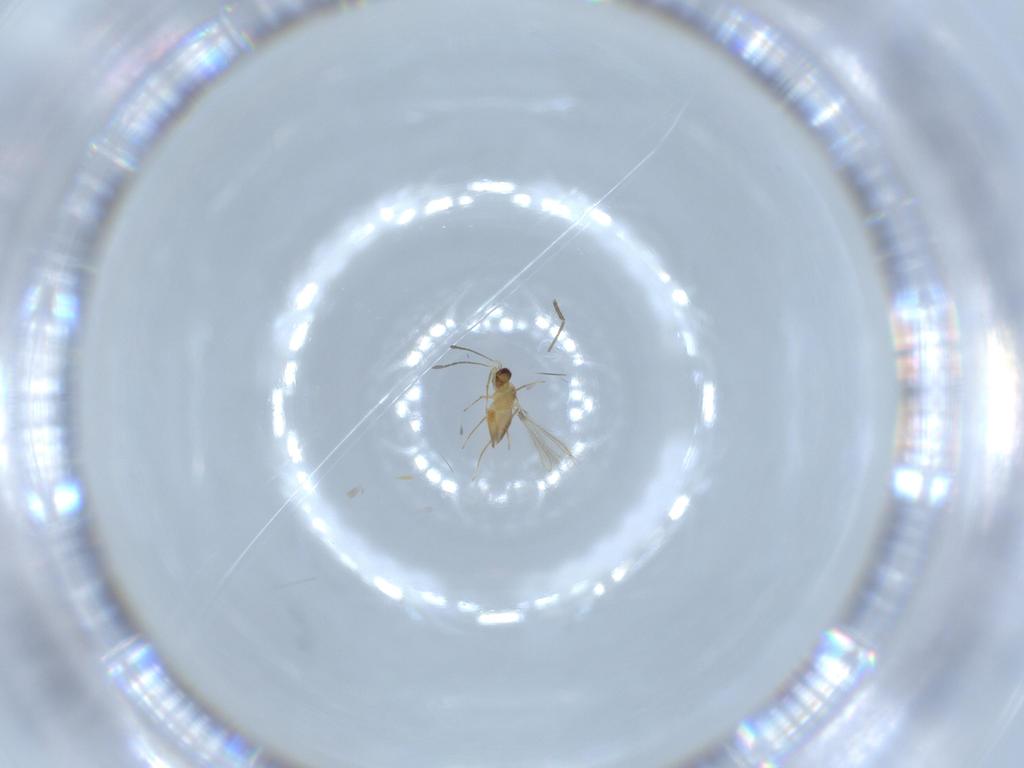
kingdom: Animalia
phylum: Arthropoda
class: Insecta
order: Hymenoptera
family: Mymaridae
